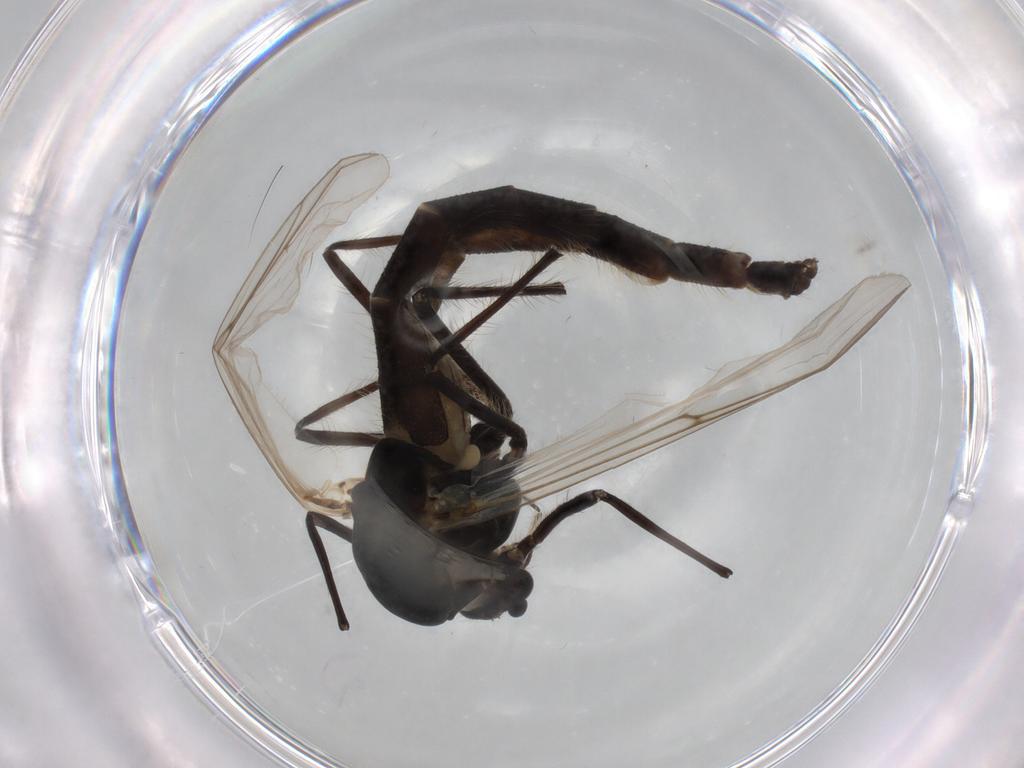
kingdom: Animalia
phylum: Arthropoda
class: Insecta
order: Diptera
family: Chironomidae
